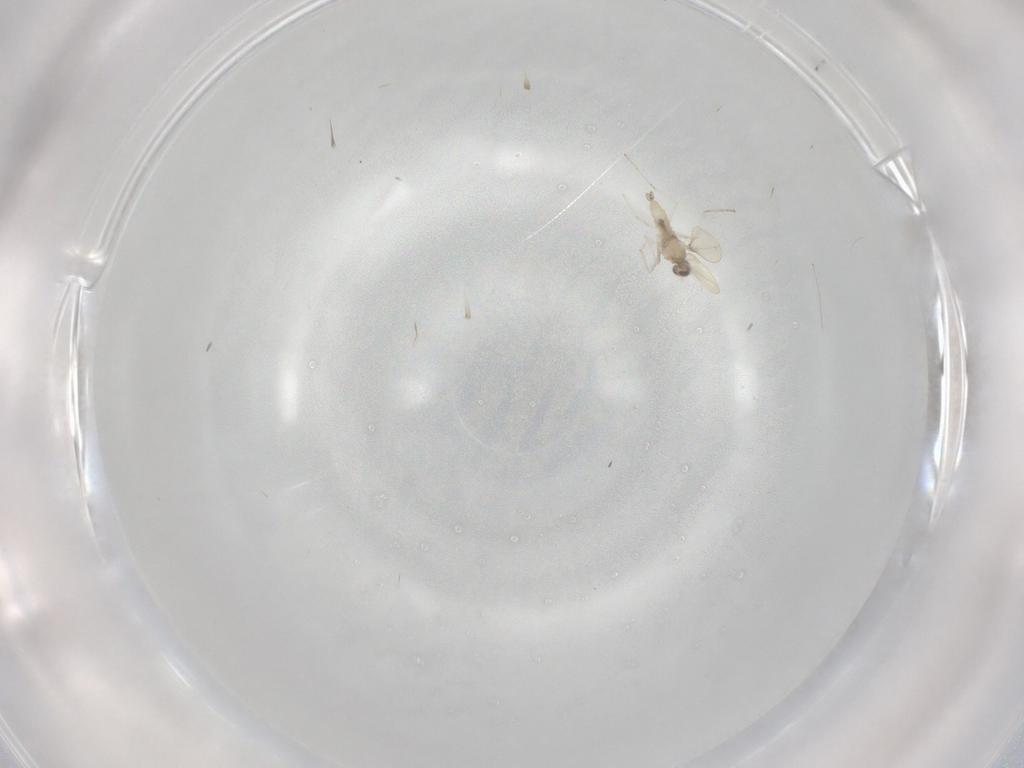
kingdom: Animalia
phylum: Arthropoda
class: Insecta
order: Diptera
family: Cecidomyiidae
